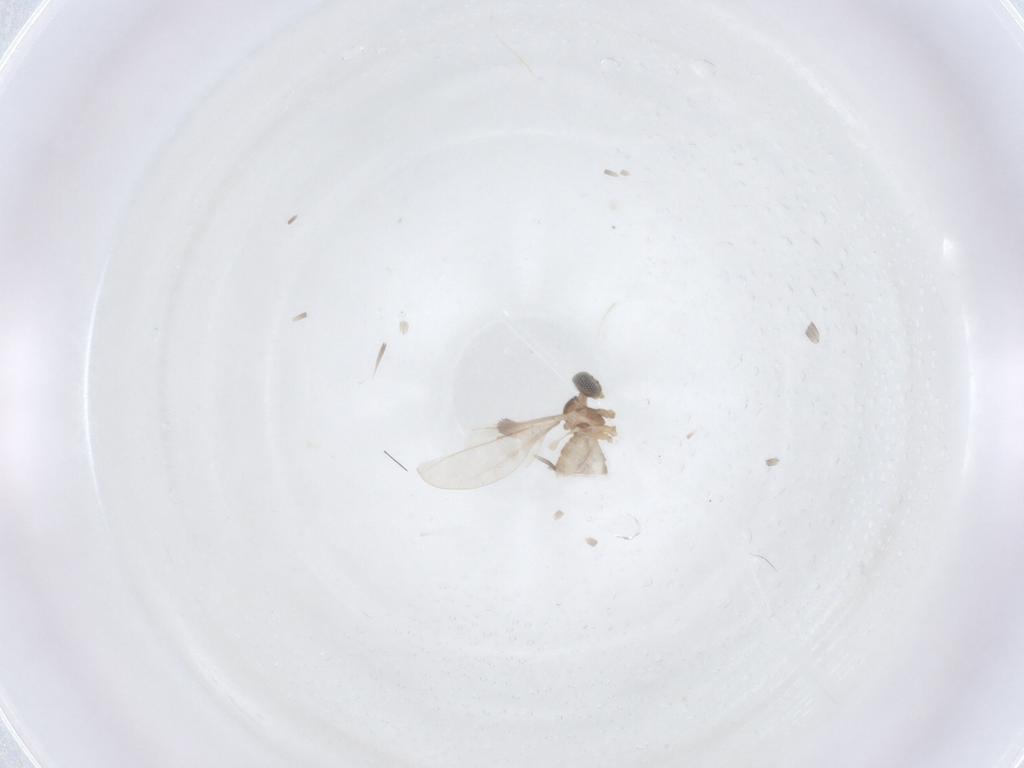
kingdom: Animalia
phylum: Arthropoda
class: Insecta
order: Diptera
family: Cecidomyiidae
